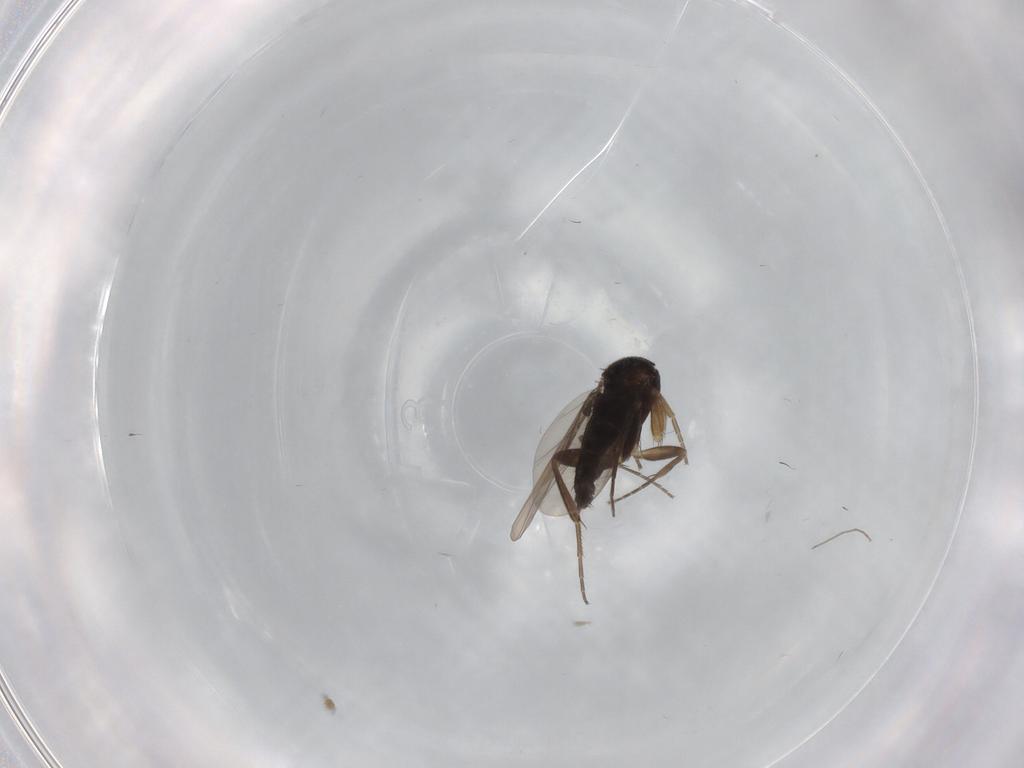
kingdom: Animalia
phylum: Arthropoda
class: Insecta
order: Diptera
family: Phoridae
